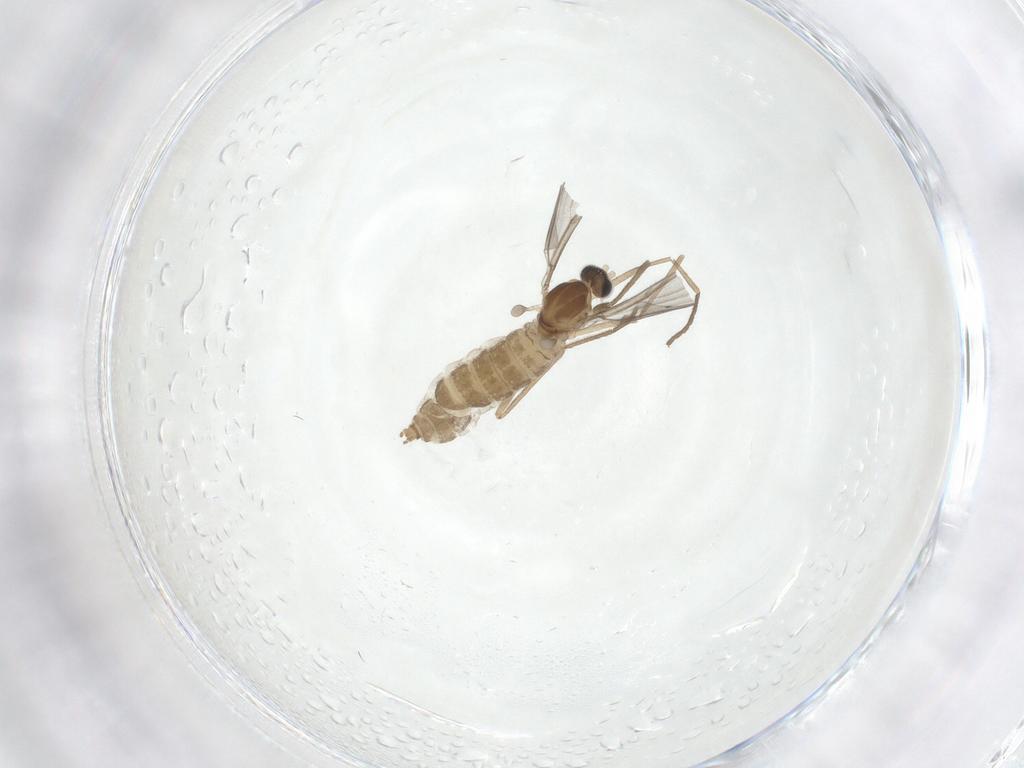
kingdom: Animalia
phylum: Arthropoda
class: Insecta
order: Diptera
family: Cecidomyiidae
